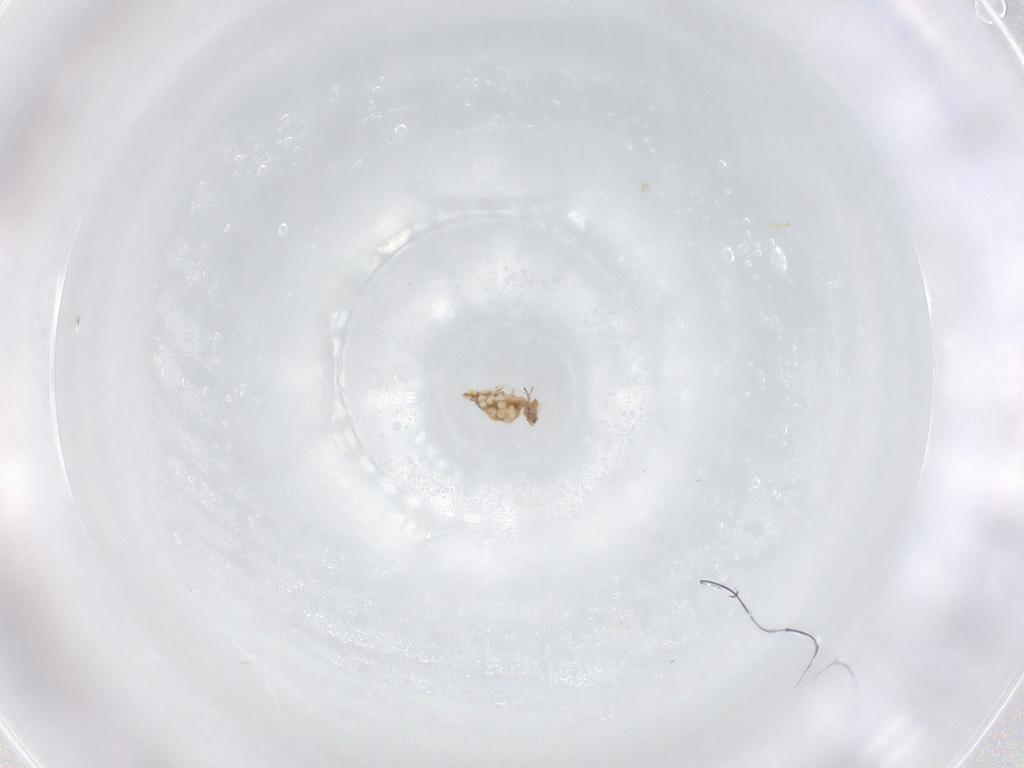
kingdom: Animalia
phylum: Arthropoda
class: Collembola
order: Symphypleona
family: Bourletiellidae
